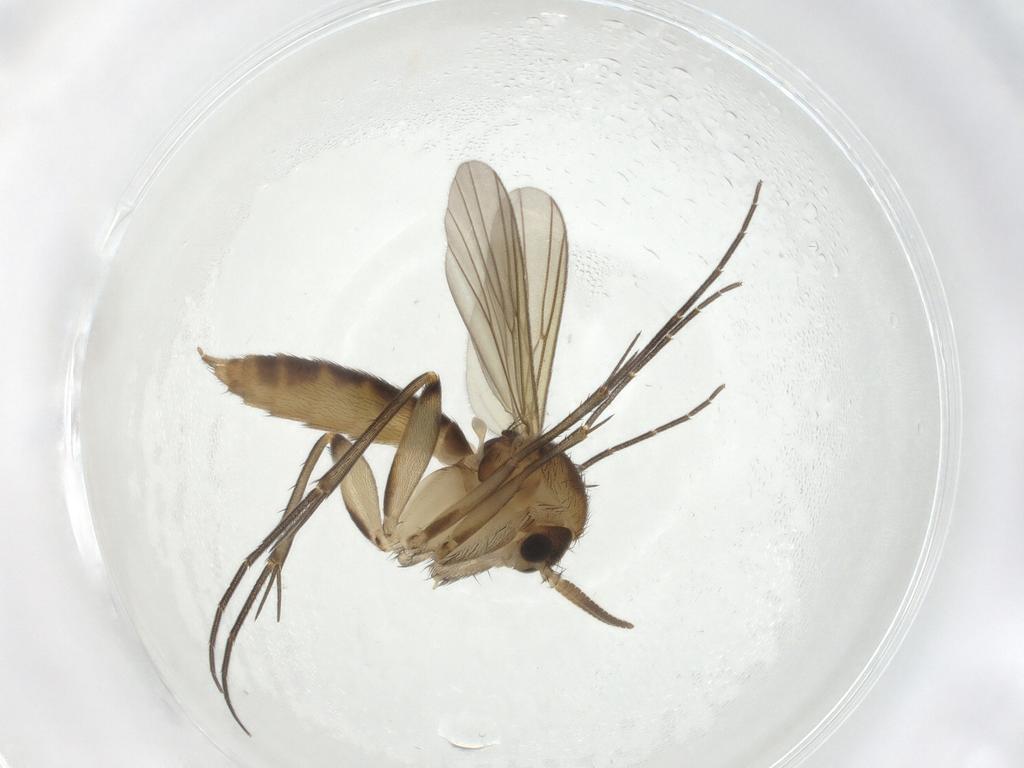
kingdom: Animalia
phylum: Arthropoda
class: Insecta
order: Diptera
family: Mycetophilidae
